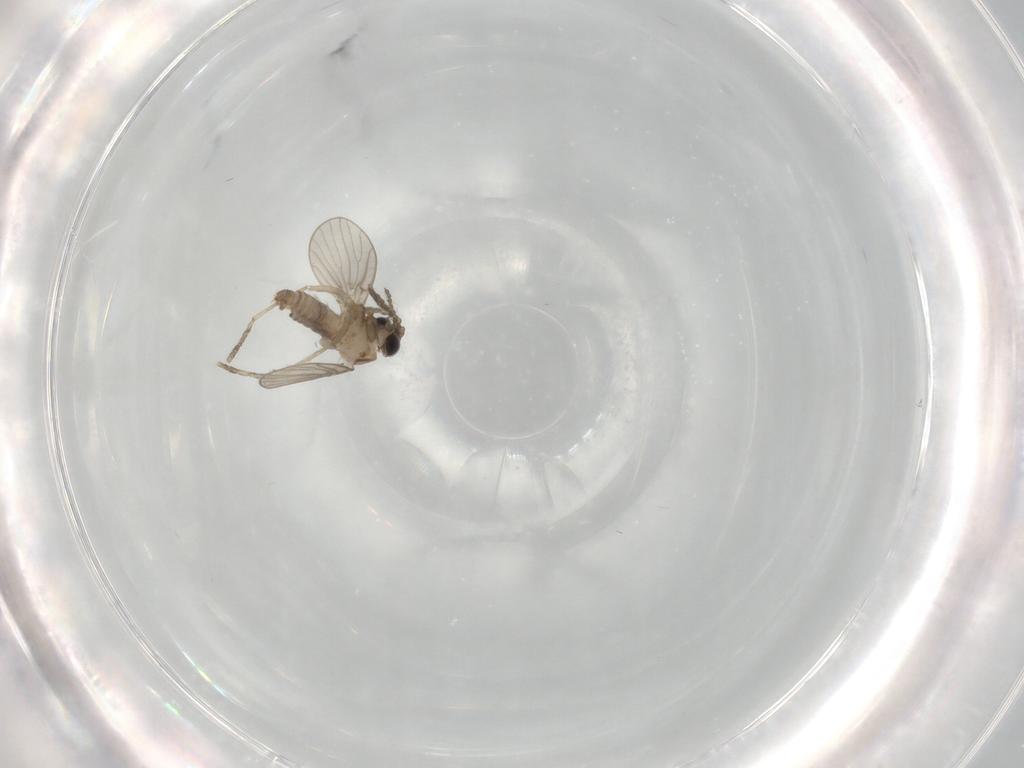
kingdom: Animalia
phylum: Arthropoda
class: Insecta
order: Diptera
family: Psychodidae
